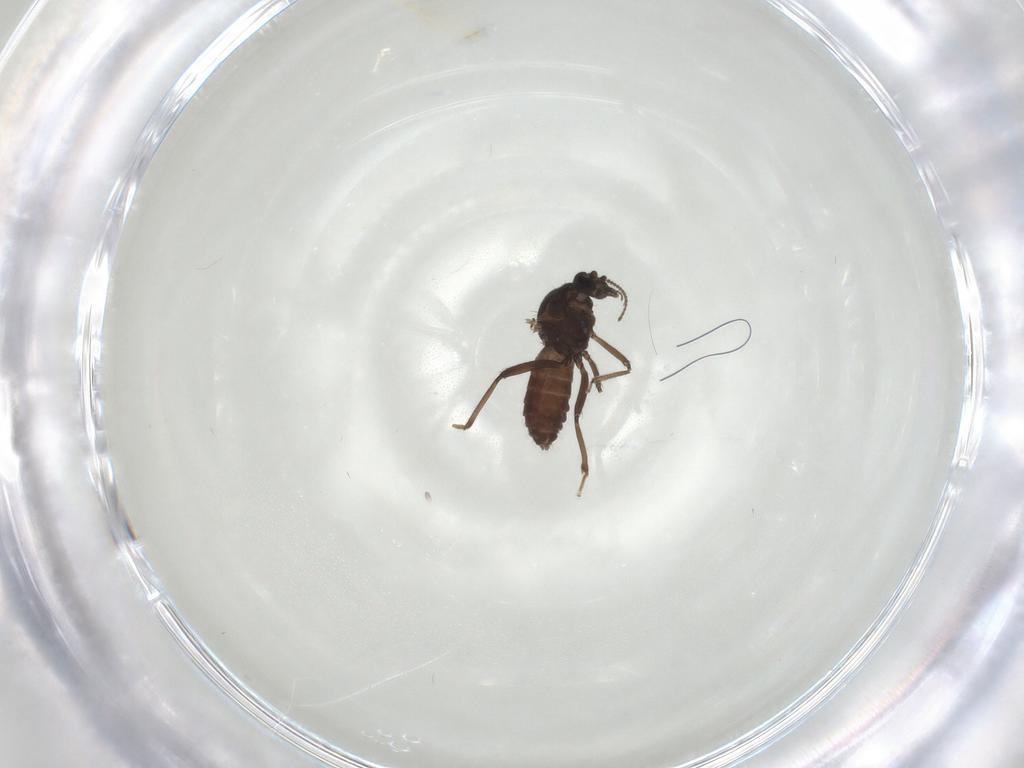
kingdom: Animalia
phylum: Arthropoda
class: Insecta
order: Diptera
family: Ceratopogonidae
